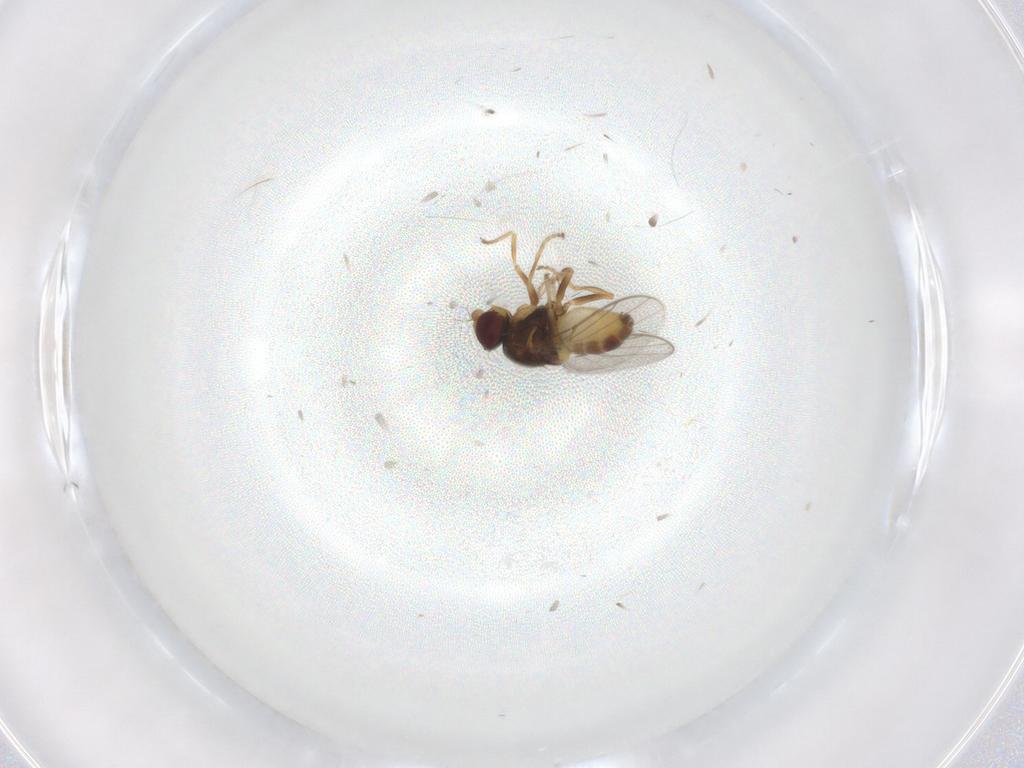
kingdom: Animalia
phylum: Arthropoda
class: Insecta
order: Diptera
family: Chloropidae
